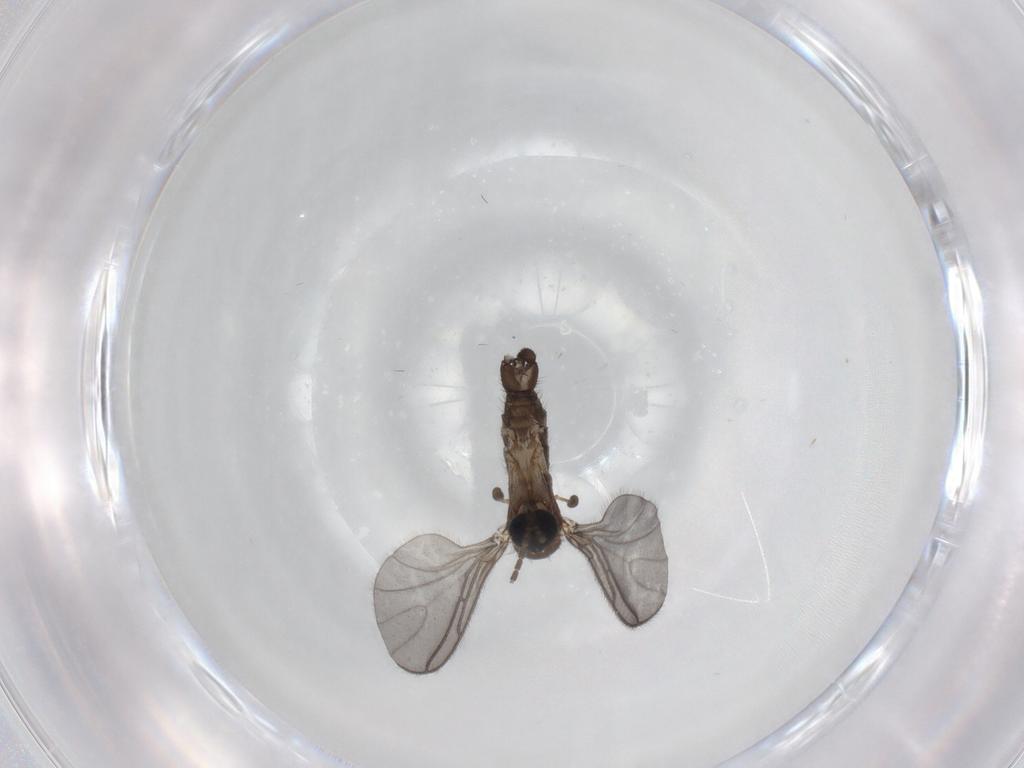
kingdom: Animalia
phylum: Arthropoda
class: Insecta
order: Diptera
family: Sciaridae
